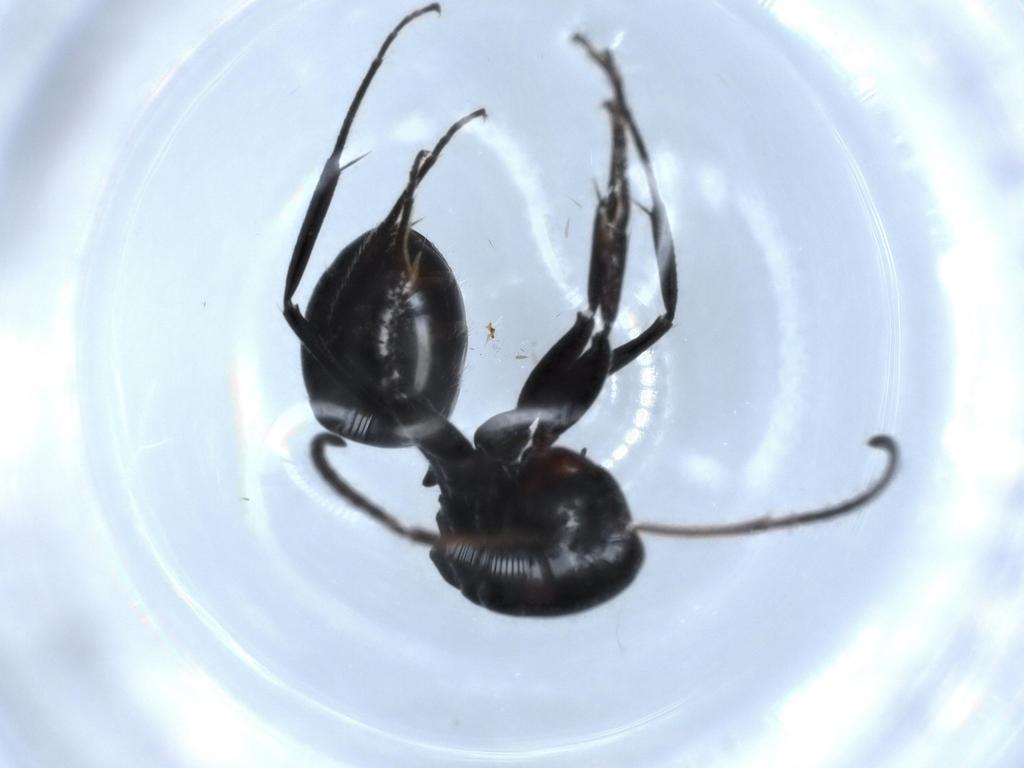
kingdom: Animalia
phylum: Arthropoda
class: Insecta
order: Hymenoptera
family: Formicidae
